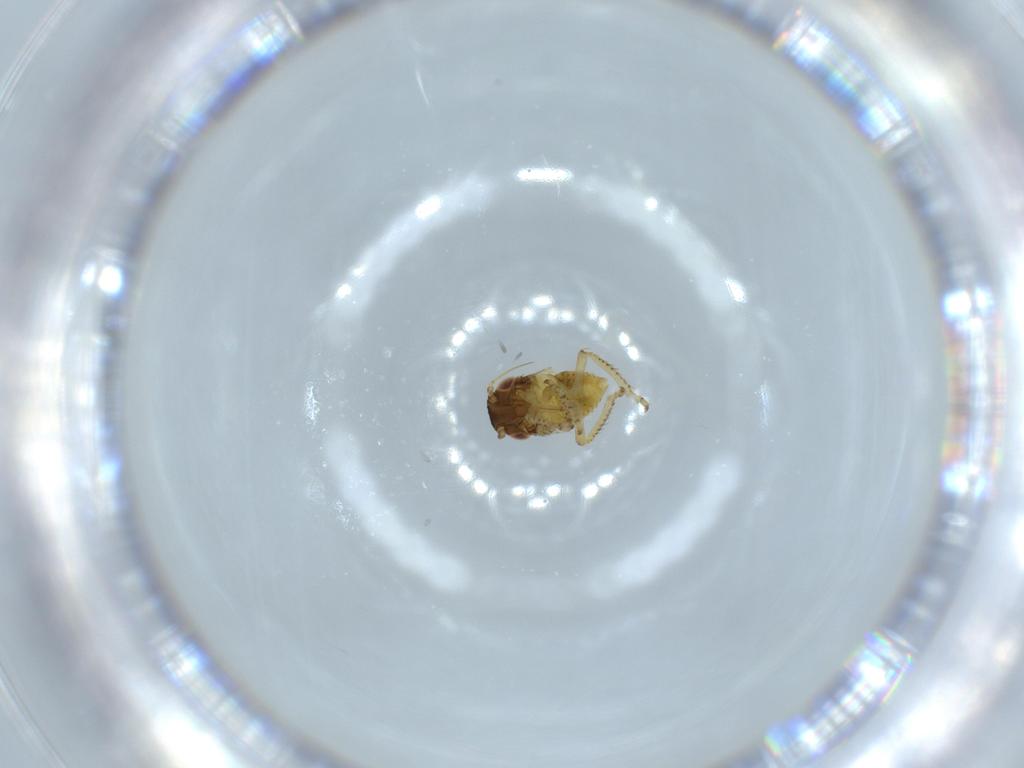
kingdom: Animalia
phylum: Arthropoda
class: Insecta
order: Hemiptera
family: Cicadellidae
